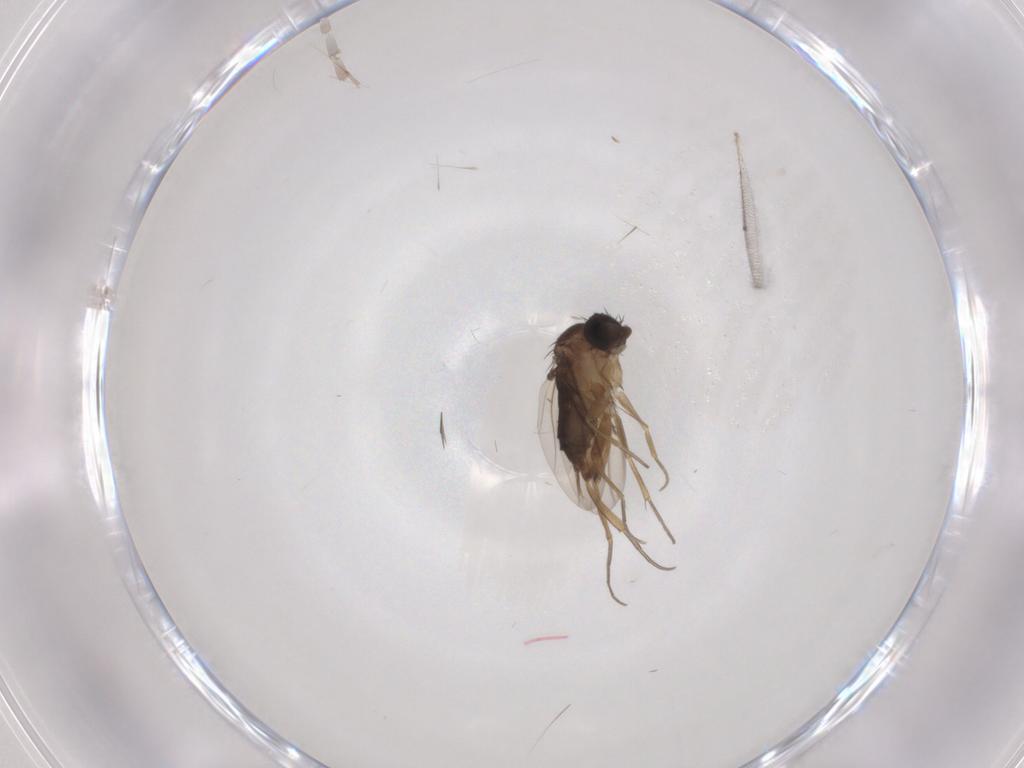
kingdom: Animalia
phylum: Arthropoda
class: Insecta
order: Diptera
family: Phoridae
